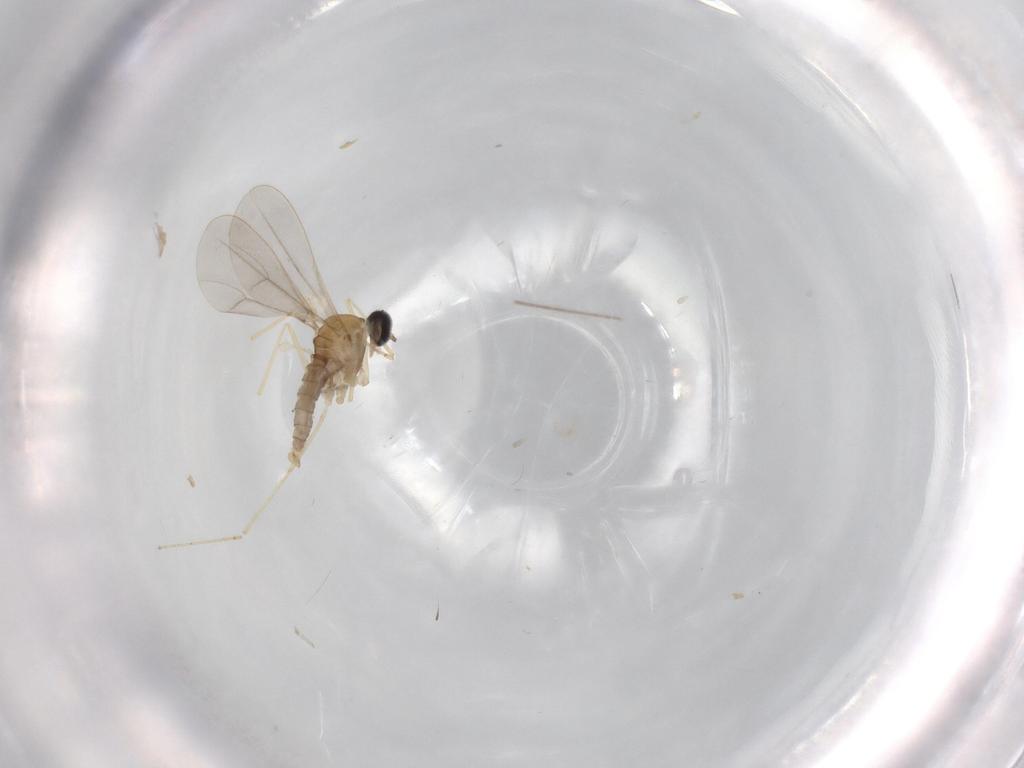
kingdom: Animalia
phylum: Arthropoda
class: Insecta
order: Diptera
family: Cecidomyiidae
